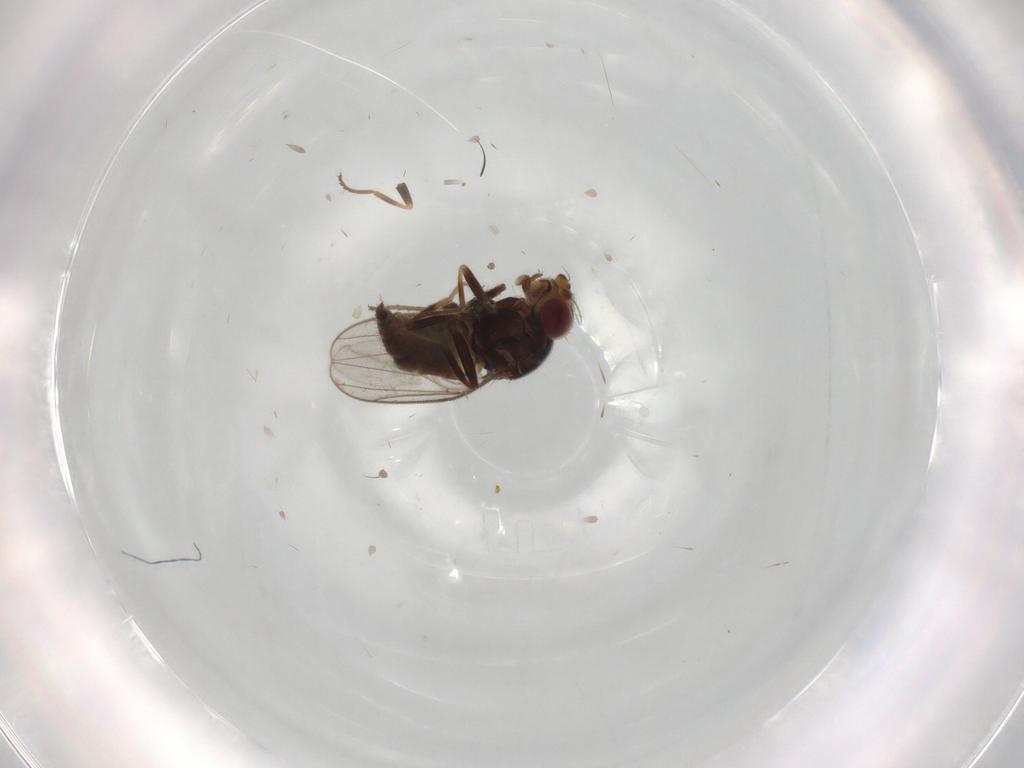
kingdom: Animalia
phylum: Arthropoda
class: Insecta
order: Diptera
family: Chloropidae
